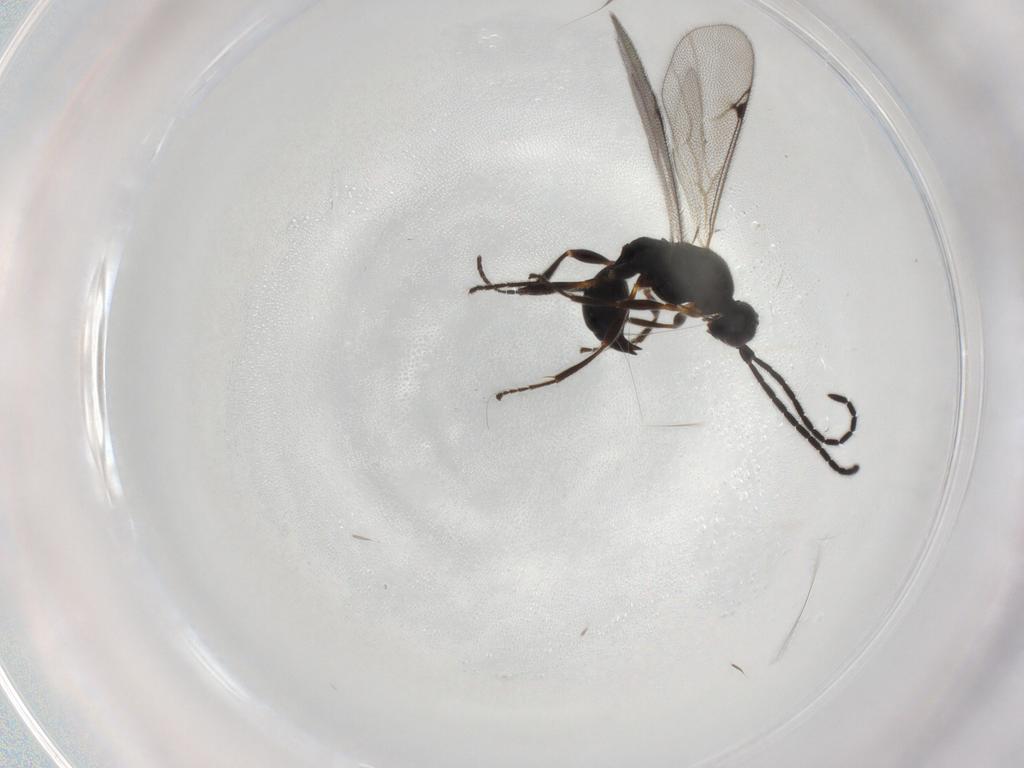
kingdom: Animalia
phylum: Arthropoda
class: Insecta
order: Hymenoptera
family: Proctotrupidae
